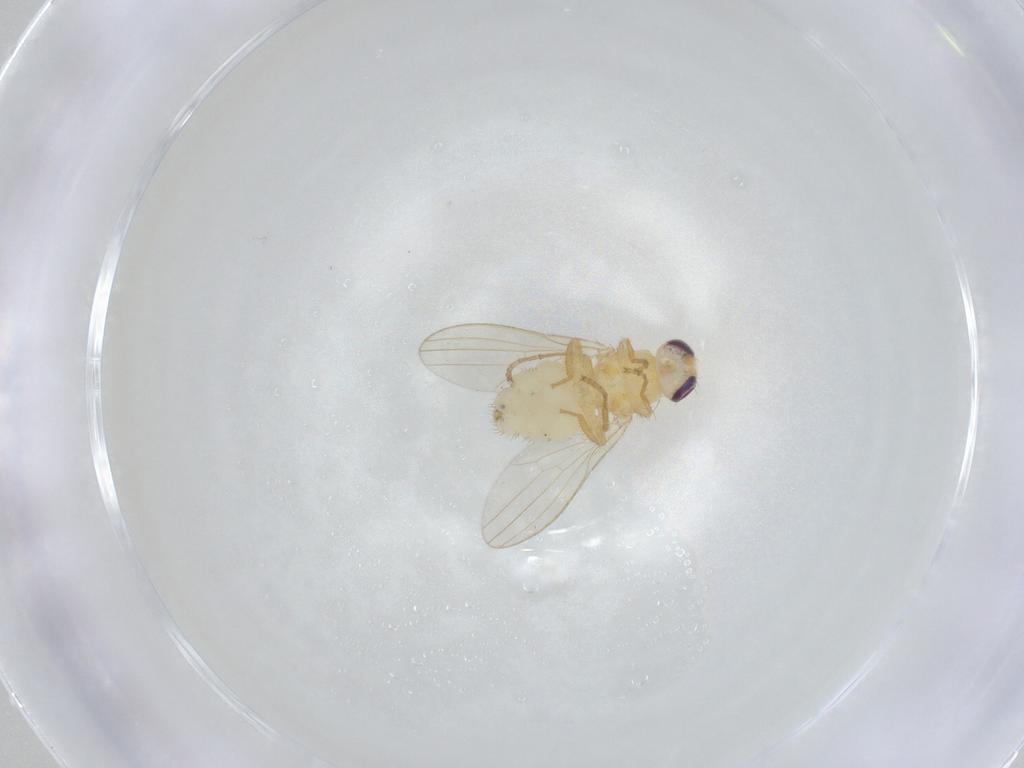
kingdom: Animalia
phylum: Arthropoda
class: Insecta
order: Diptera
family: Chyromyidae
